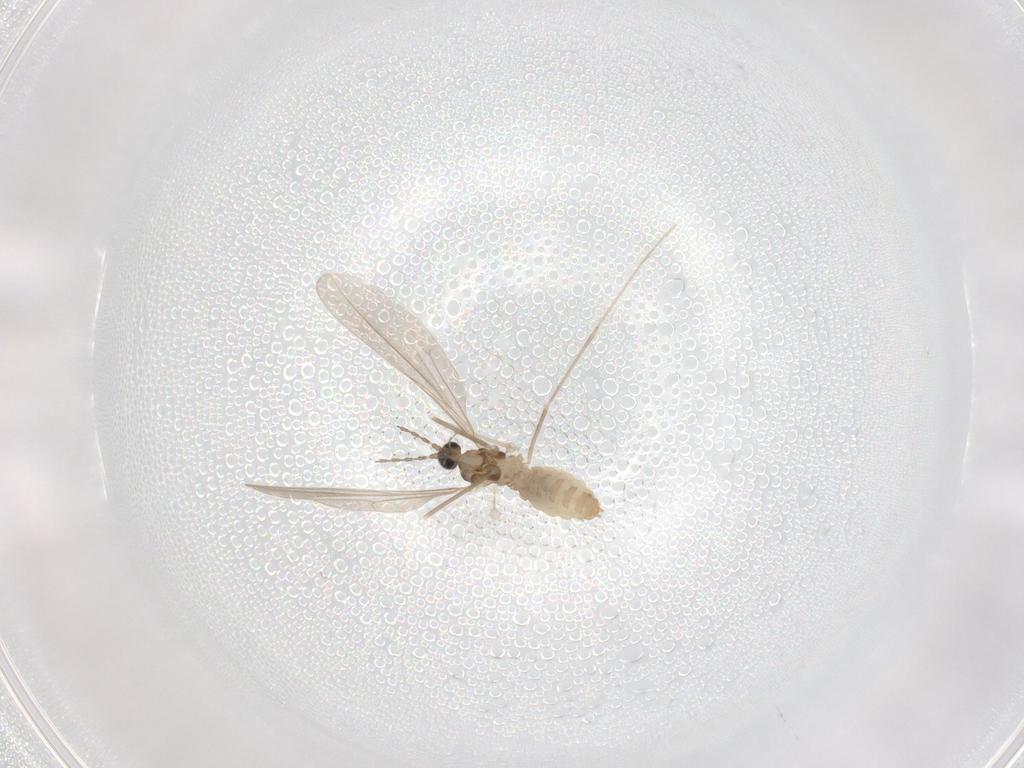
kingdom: Animalia
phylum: Arthropoda
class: Insecta
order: Diptera
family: Cecidomyiidae
